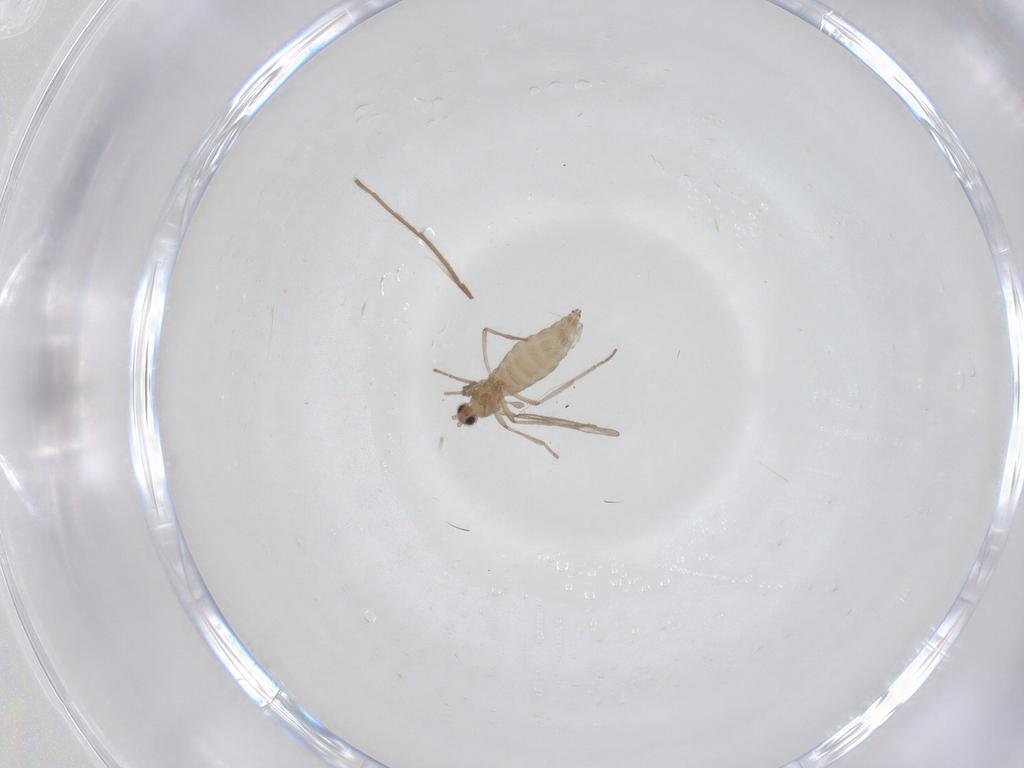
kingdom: Animalia
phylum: Arthropoda
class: Insecta
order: Diptera
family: Cecidomyiidae
